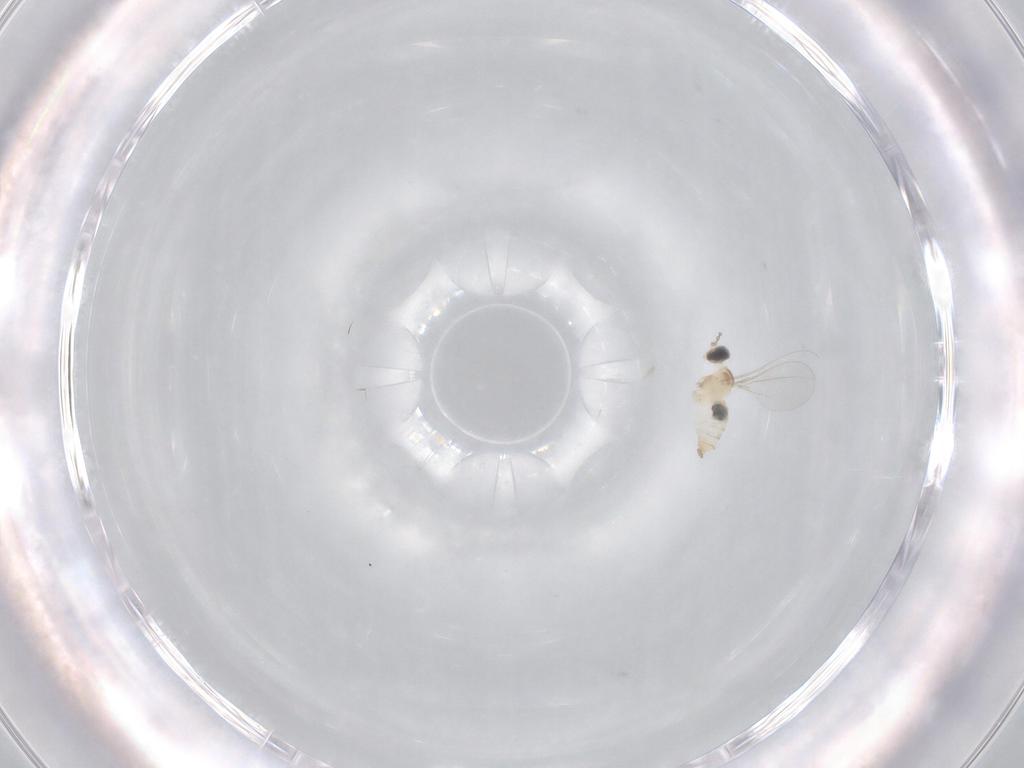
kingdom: Animalia
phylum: Arthropoda
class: Insecta
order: Diptera
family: Cecidomyiidae
